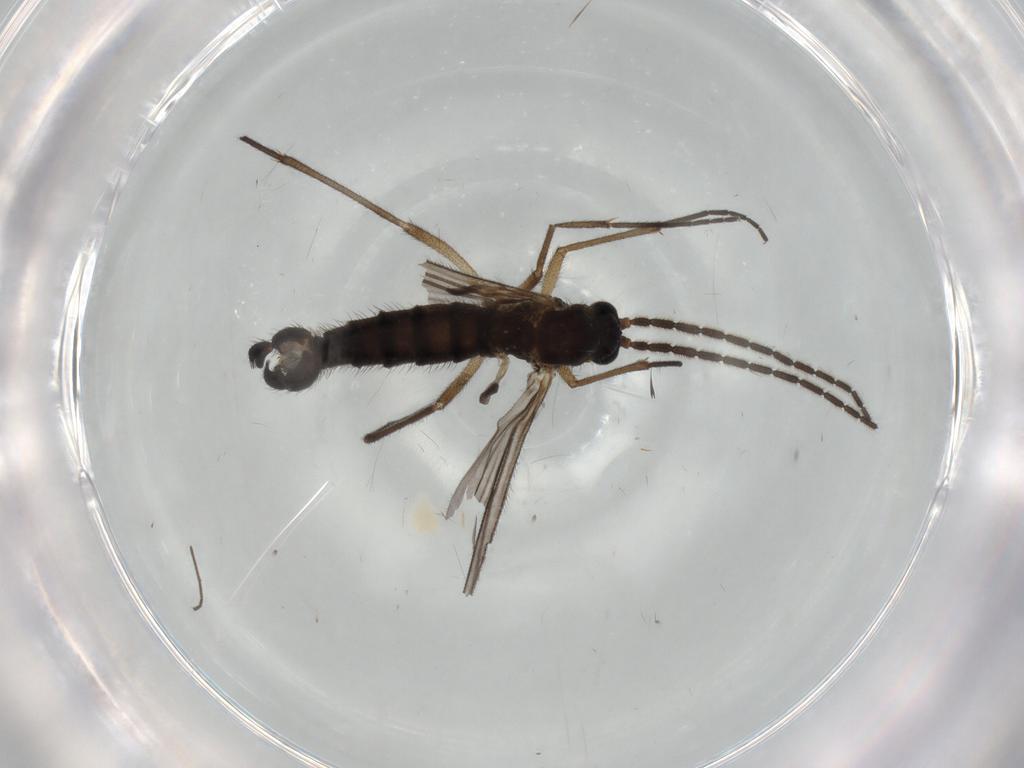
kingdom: Animalia
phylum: Arthropoda
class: Insecta
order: Diptera
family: Sciaridae
